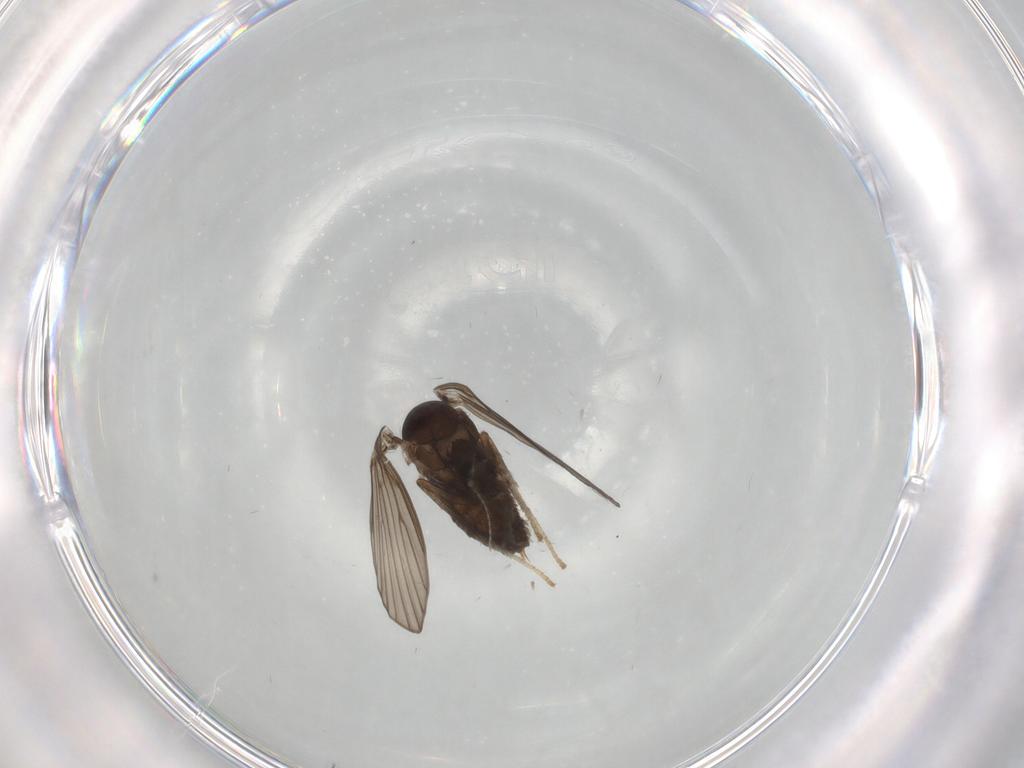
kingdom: Animalia
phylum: Arthropoda
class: Insecta
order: Diptera
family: Psychodidae
